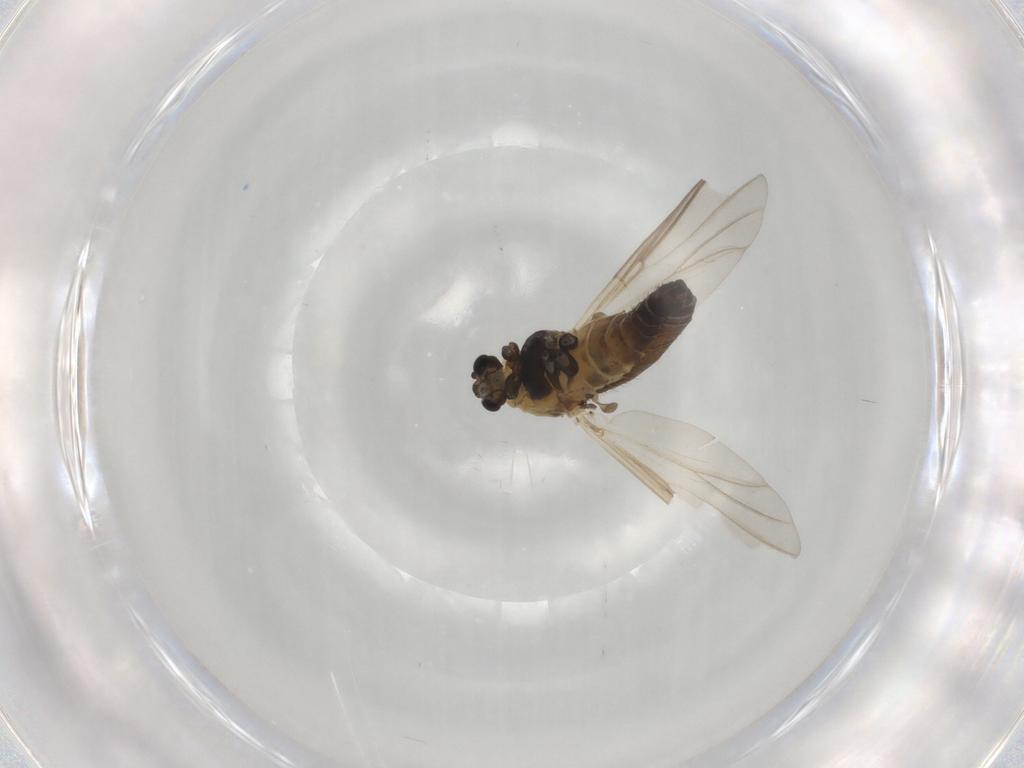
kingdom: Animalia
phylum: Arthropoda
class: Insecta
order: Diptera
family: Chironomidae
